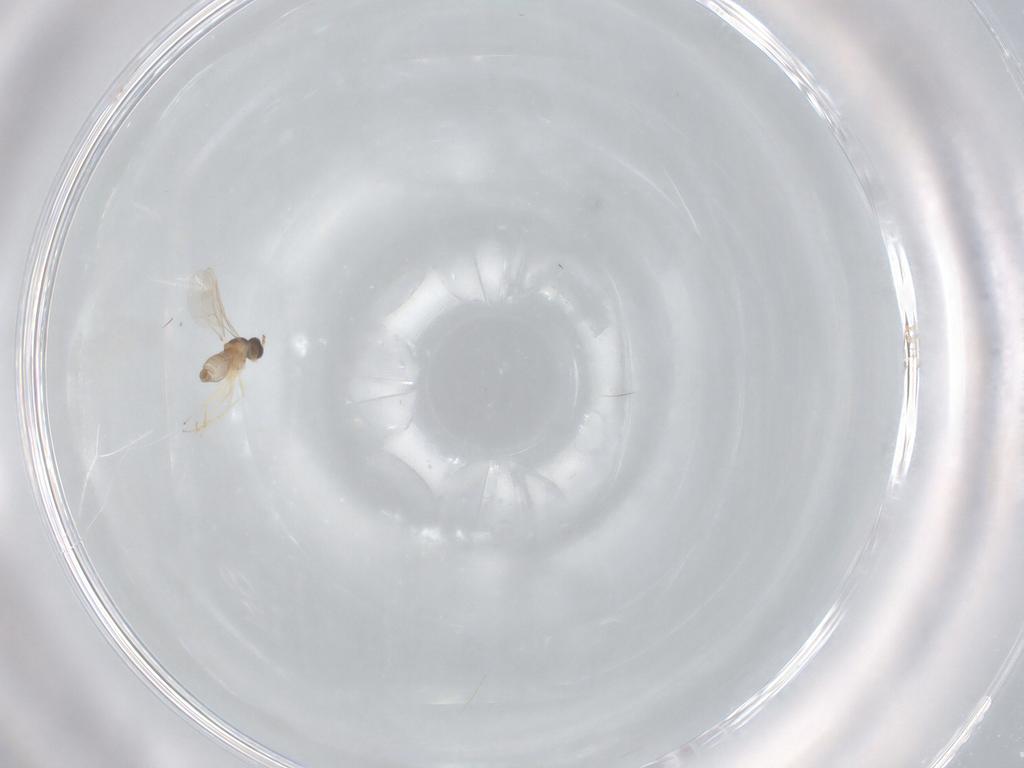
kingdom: Animalia
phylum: Arthropoda
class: Insecta
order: Diptera
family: Cecidomyiidae
